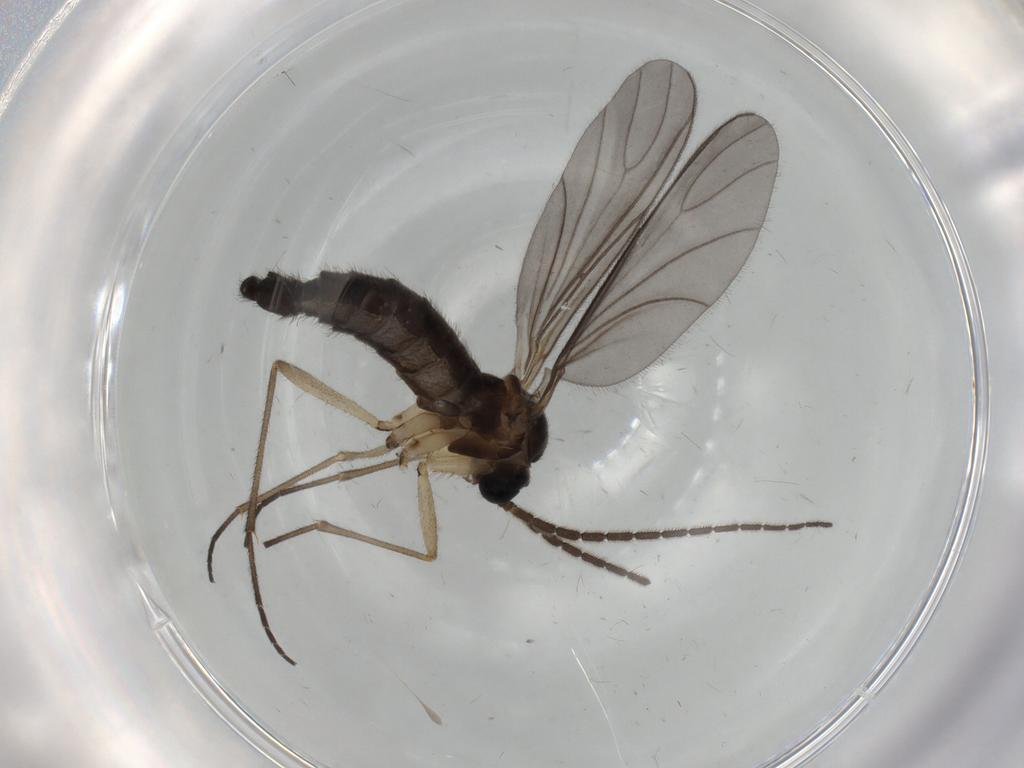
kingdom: Animalia
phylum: Arthropoda
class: Insecta
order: Diptera
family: Sciaridae
